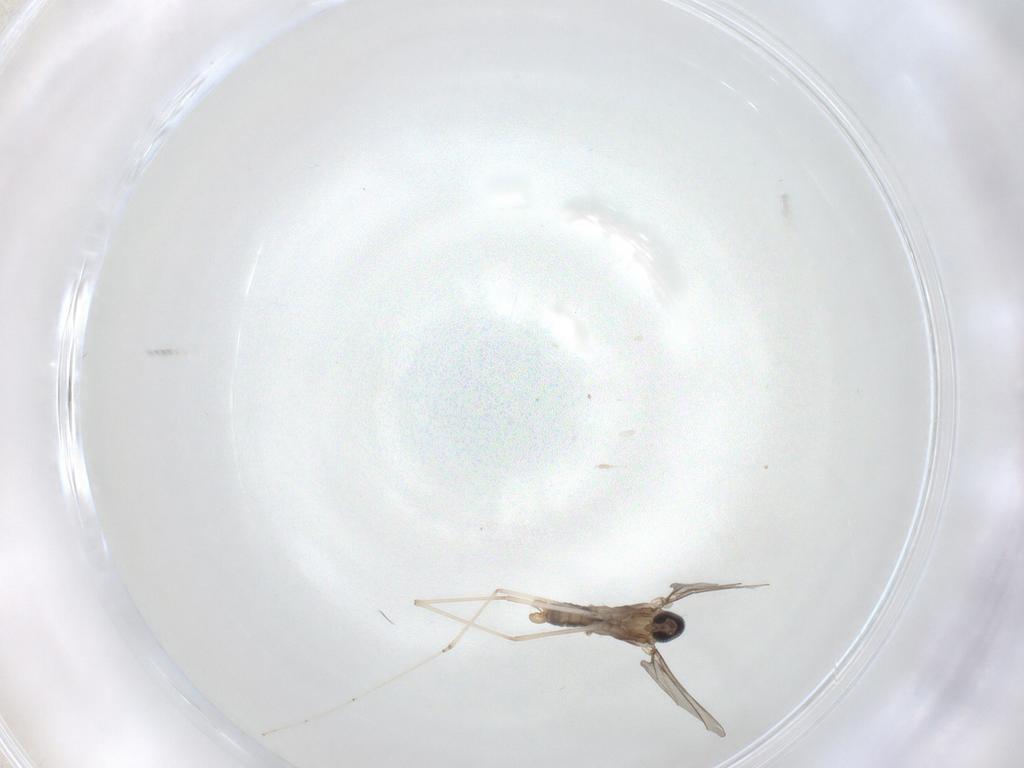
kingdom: Animalia
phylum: Arthropoda
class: Insecta
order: Diptera
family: Cecidomyiidae
